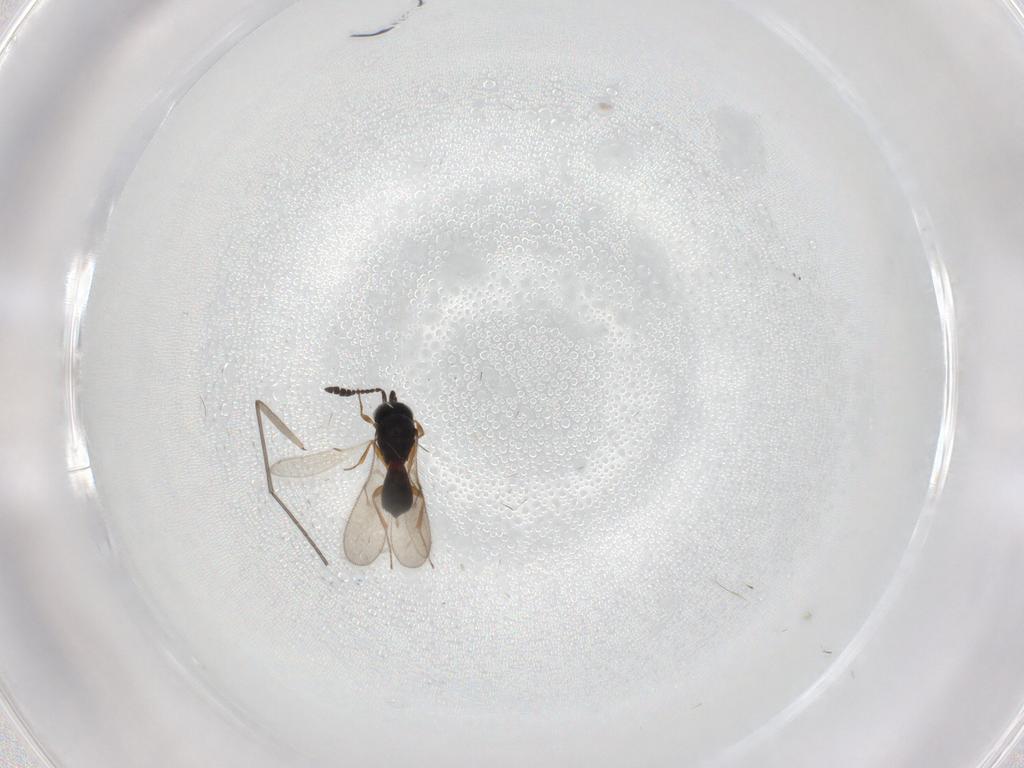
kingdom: Animalia
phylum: Arthropoda
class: Insecta
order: Hymenoptera
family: Scelionidae
